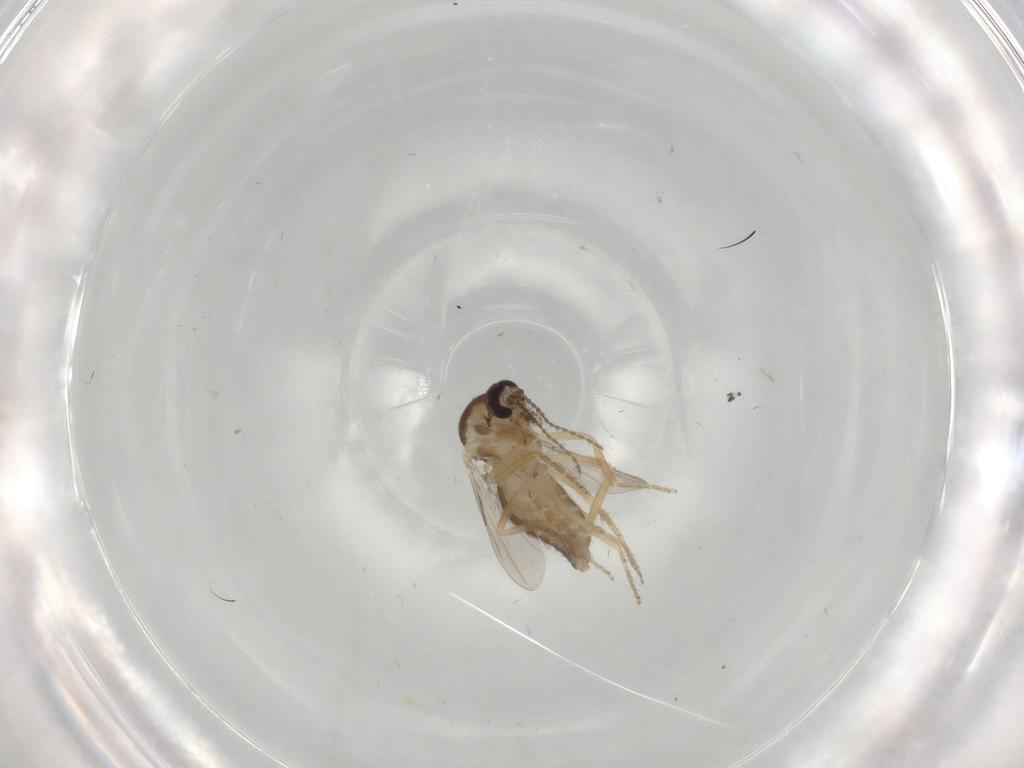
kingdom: Animalia
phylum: Arthropoda
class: Insecta
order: Diptera
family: Ceratopogonidae
